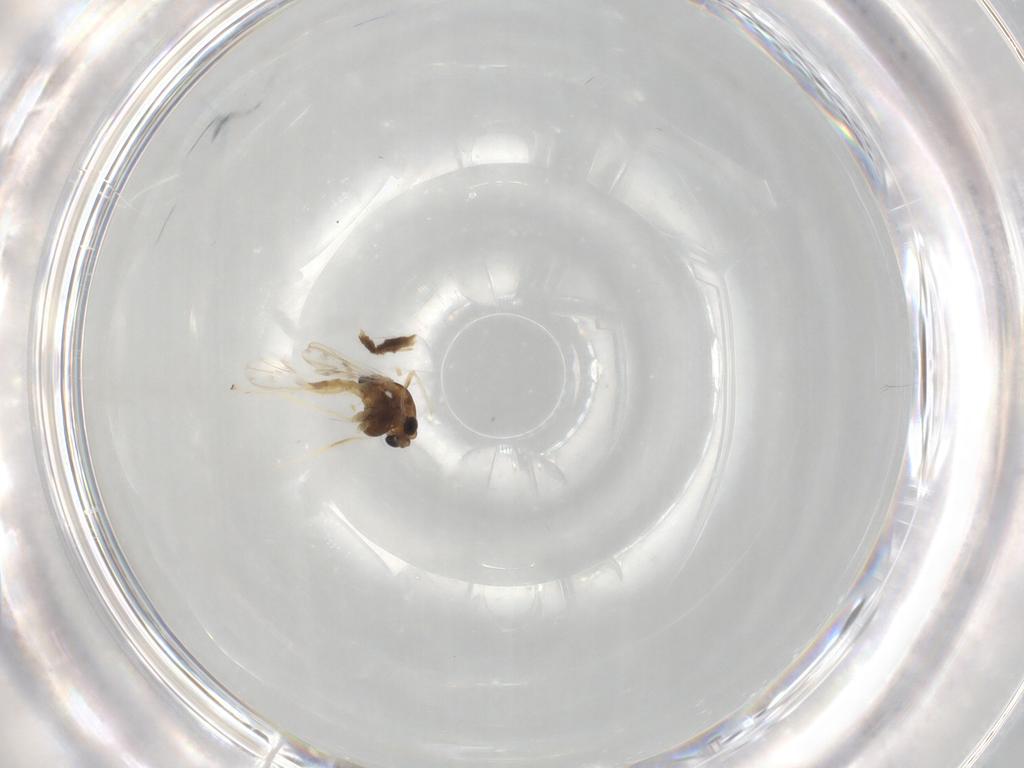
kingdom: Animalia
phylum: Arthropoda
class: Insecta
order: Diptera
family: Chironomidae
